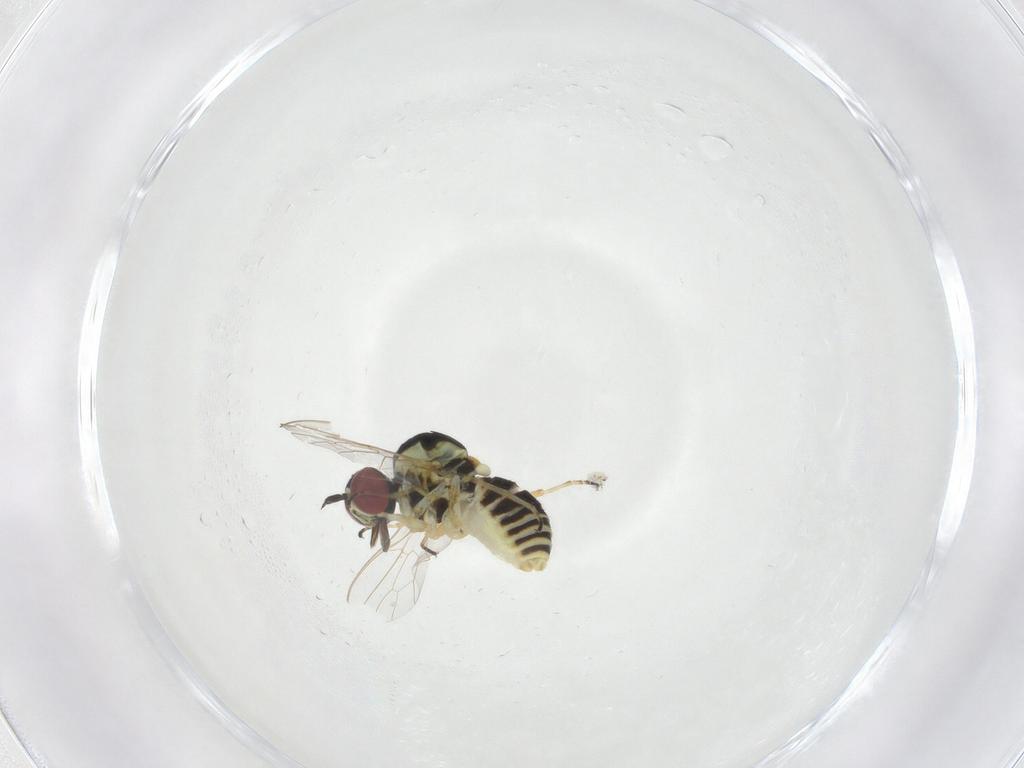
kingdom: Animalia
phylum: Arthropoda
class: Insecta
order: Diptera
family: Bombyliidae
